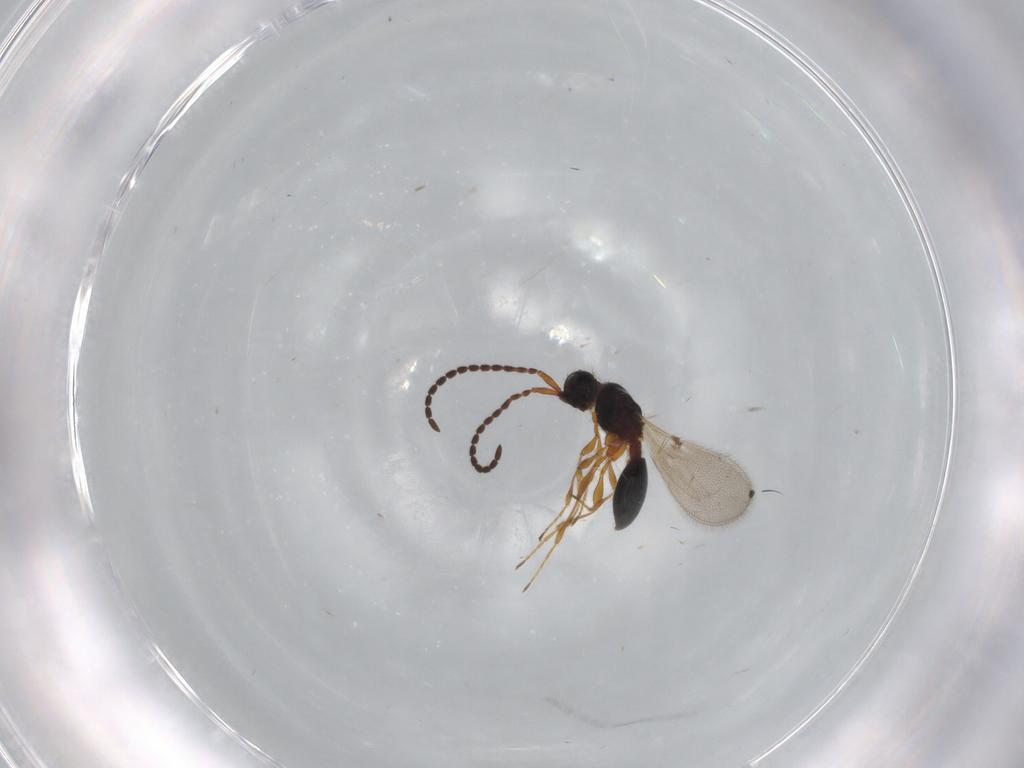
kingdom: Animalia
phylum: Arthropoda
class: Insecta
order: Hymenoptera
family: Diapriidae
